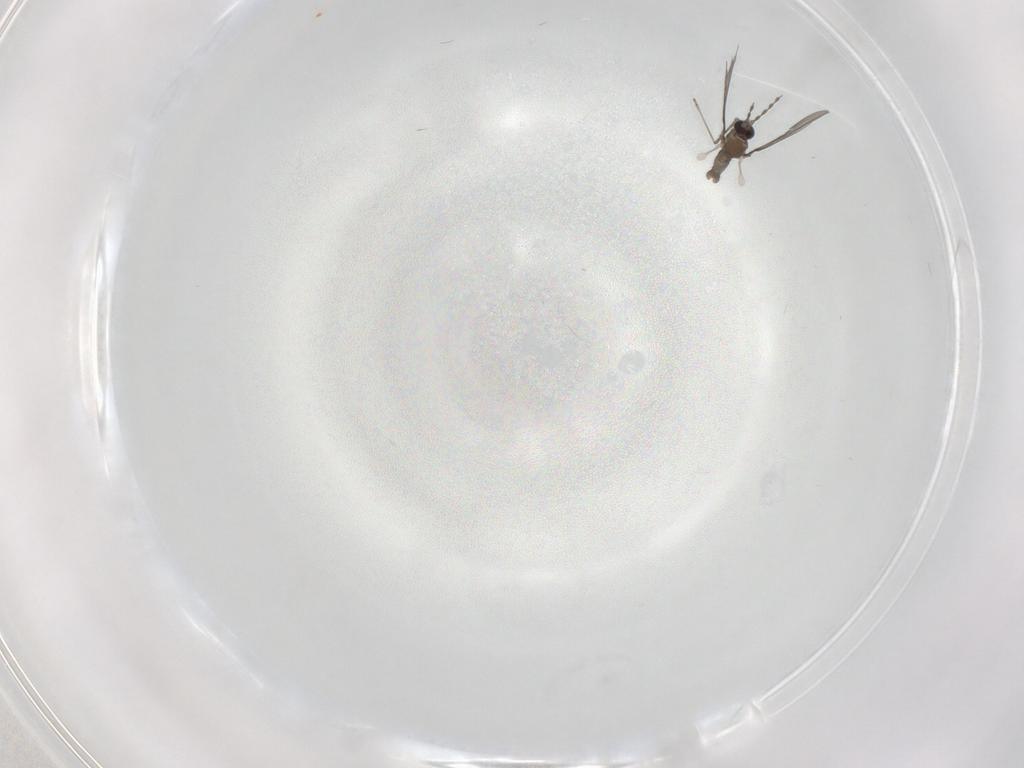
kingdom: Animalia
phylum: Arthropoda
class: Insecta
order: Diptera
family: Cecidomyiidae
